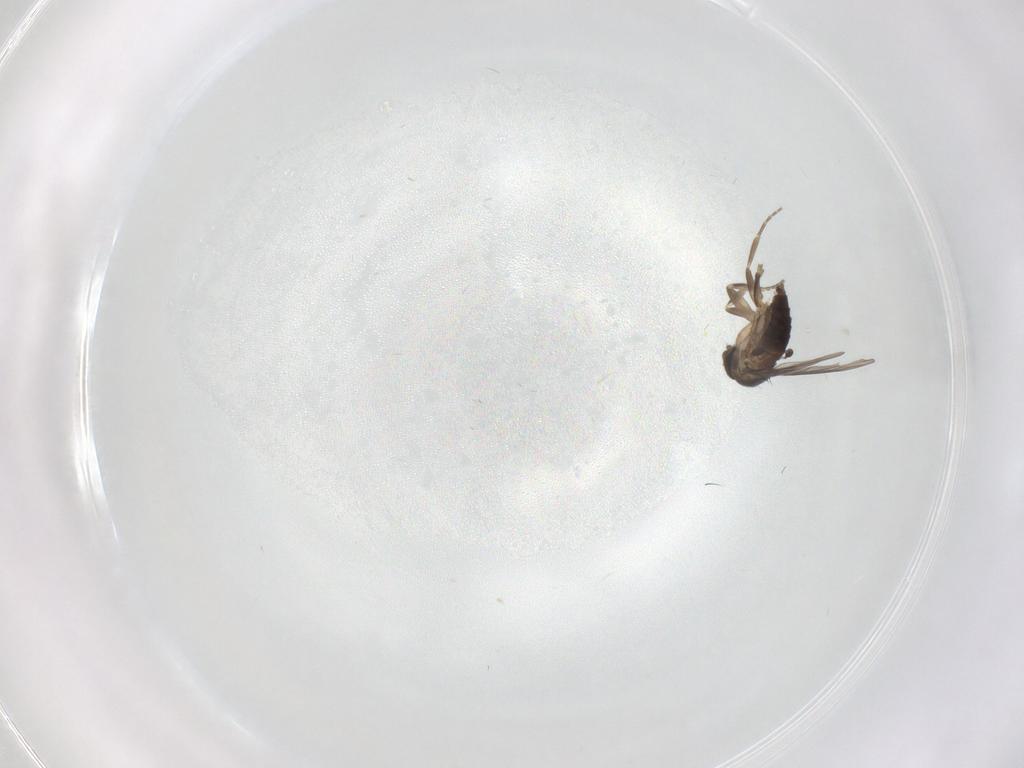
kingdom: Animalia
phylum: Arthropoda
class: Insecta
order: Diptera
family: Phoridae
